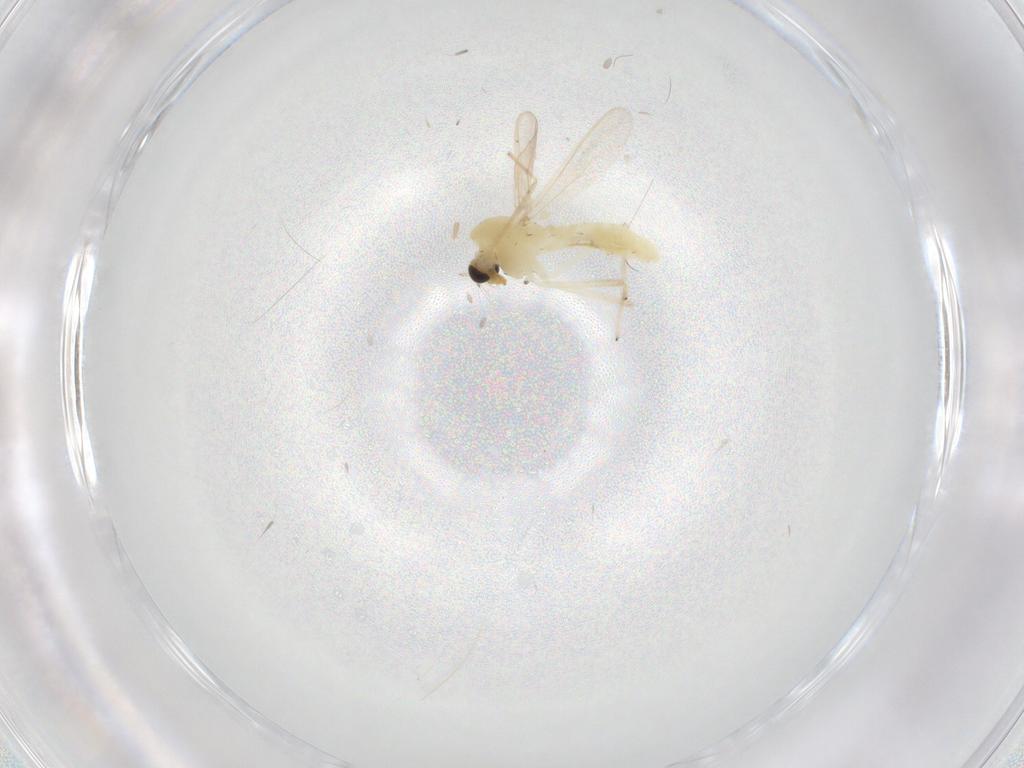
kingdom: Animalia
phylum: Arthropoda
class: Insecta
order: Diptera
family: Chironomidae
